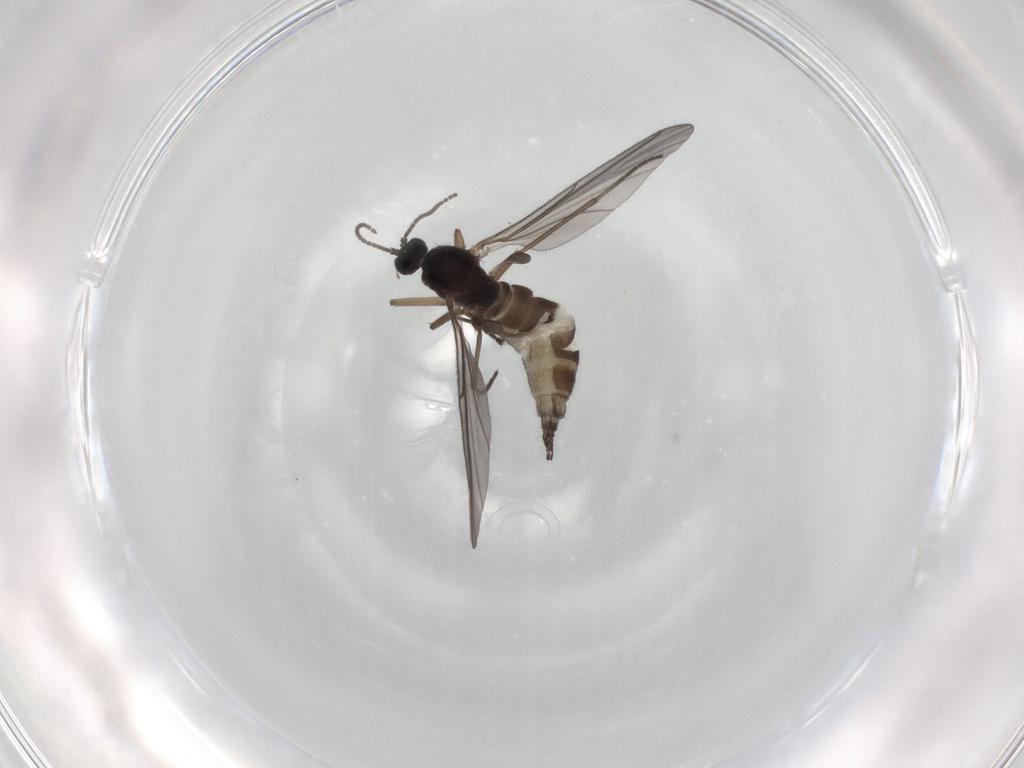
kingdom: Animalia
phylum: Arthropoda
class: Insecta
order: Diptera
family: Sciaridae
